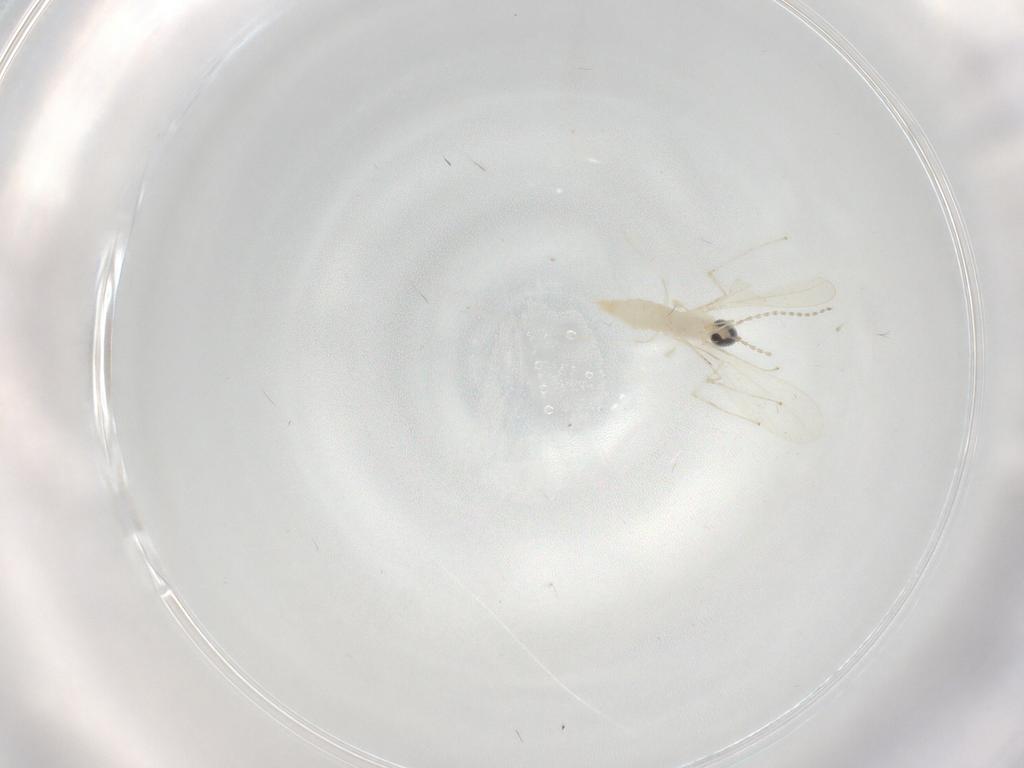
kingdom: Animalia
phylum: Arthropoda
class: Insecta
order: Diptera
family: Cecidomyiidae
